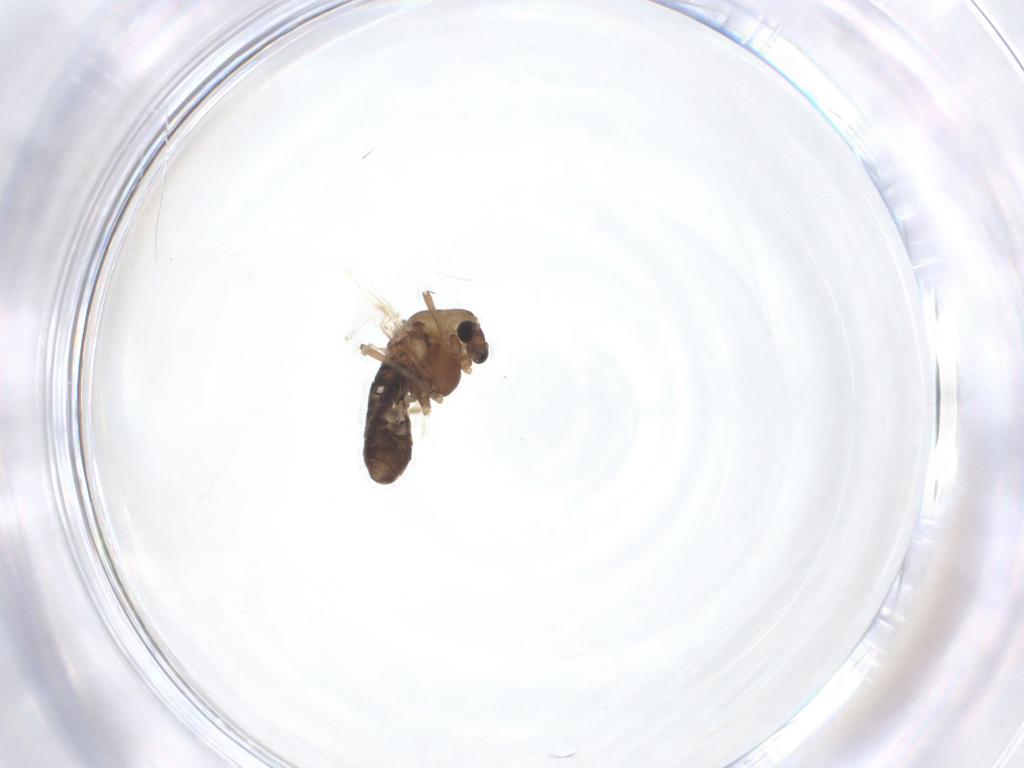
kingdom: Animalia
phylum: Arthropoda
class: Insecta
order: Diptera
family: Chironomidae
